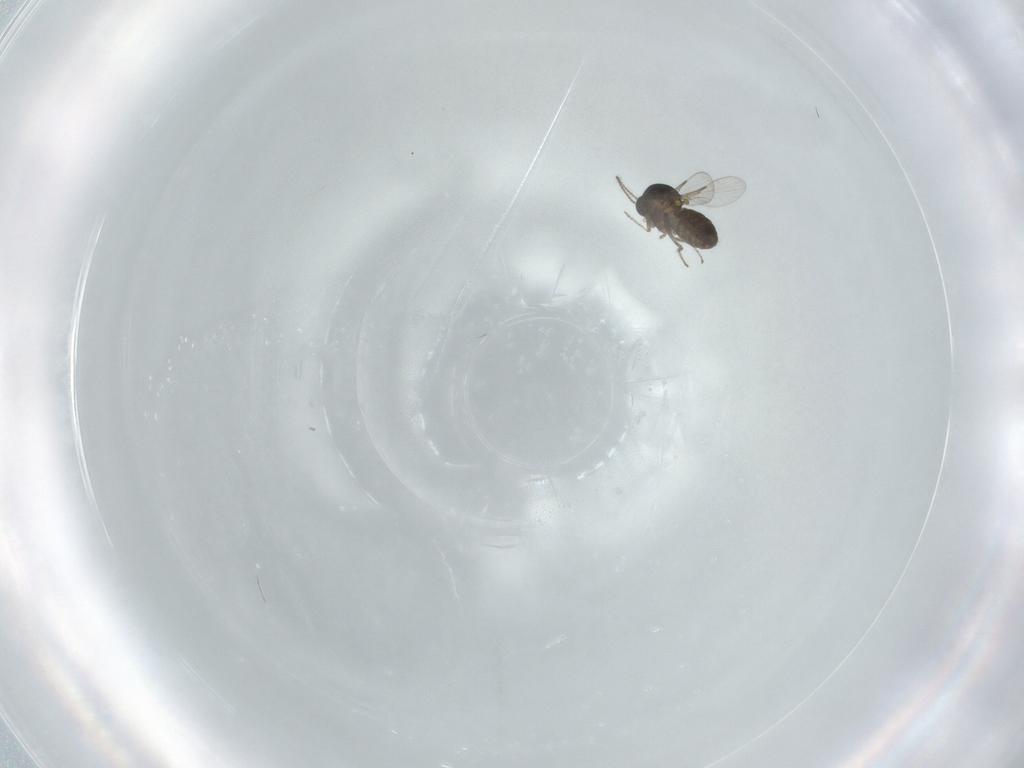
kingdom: Animalia
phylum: Arthropoda
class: Insecta
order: Diptera
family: Ceratopogonidae
